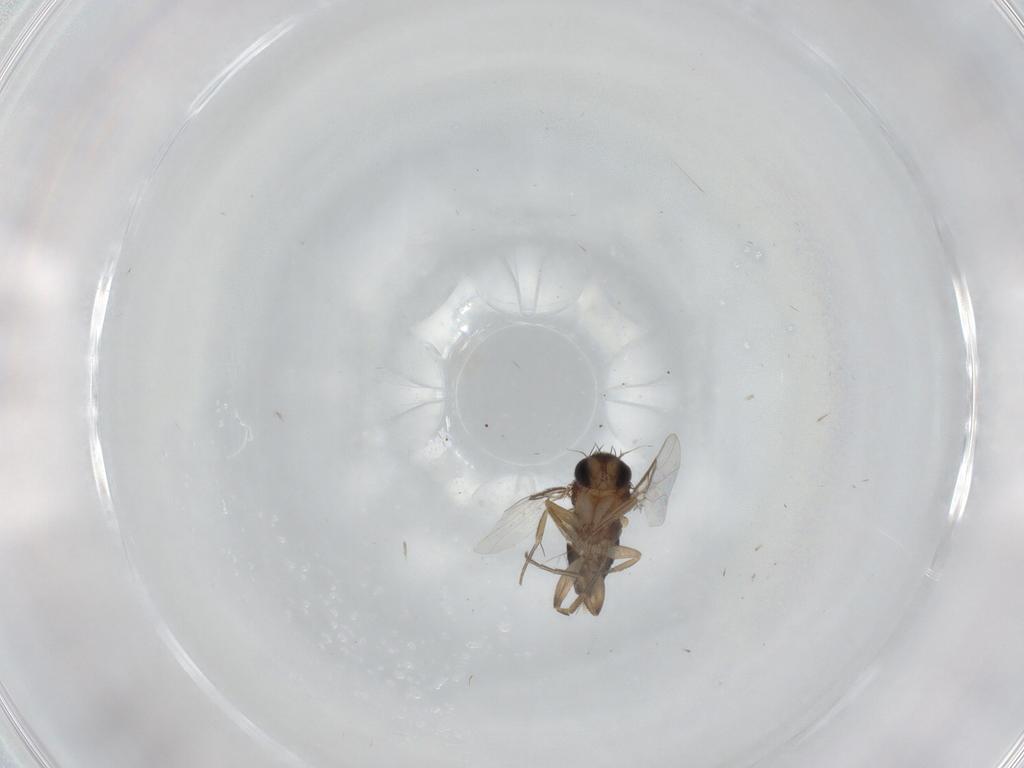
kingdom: Animalia
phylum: Arthropoda
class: Insecta
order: Diptera
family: Phoridae
